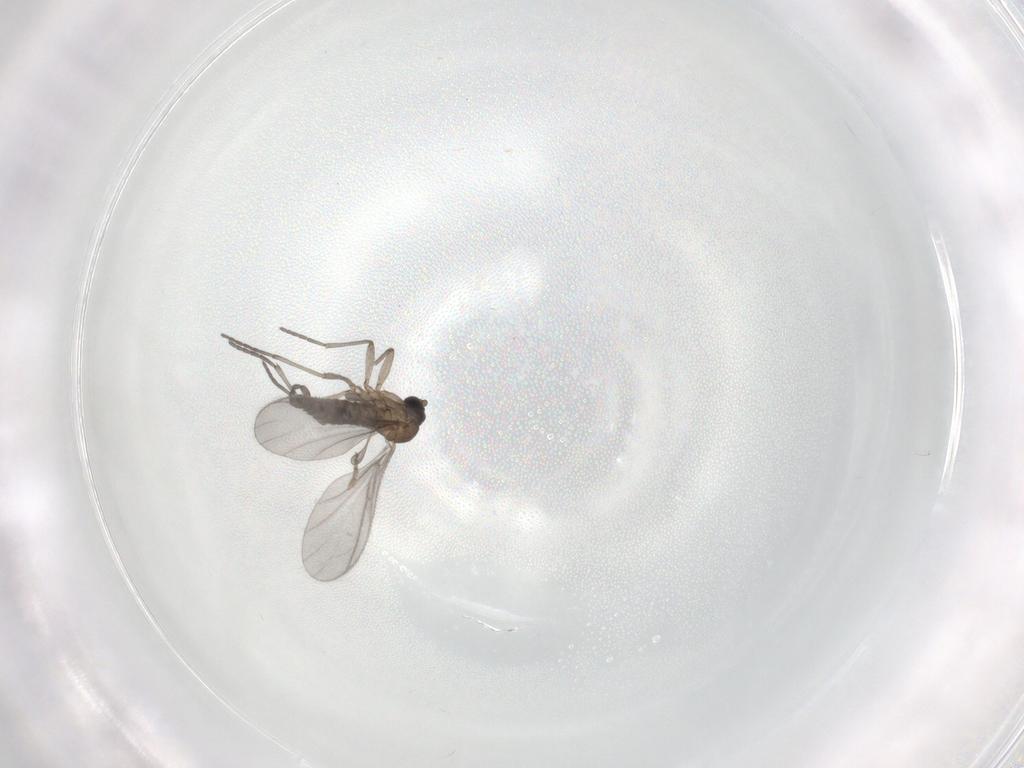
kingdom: Animalia
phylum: Arthropoda
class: Insecta
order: Diptera
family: Sciaridae
